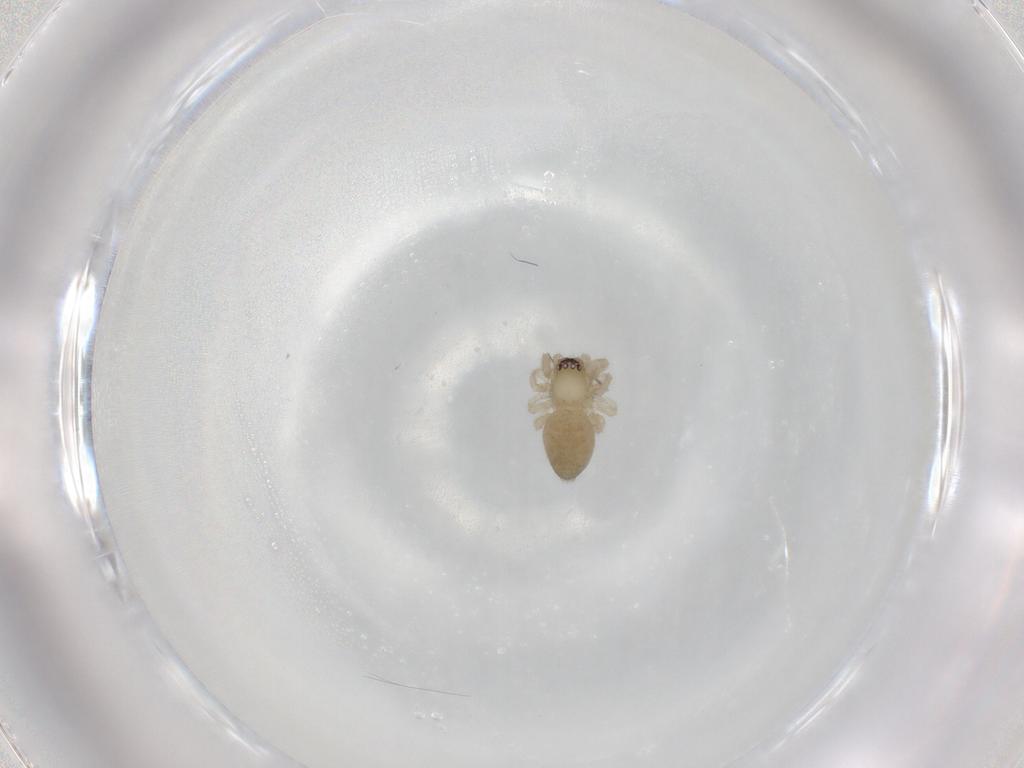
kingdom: Animalia
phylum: Arthropoda
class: Arachnida
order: Araneae
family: Trachelidae
